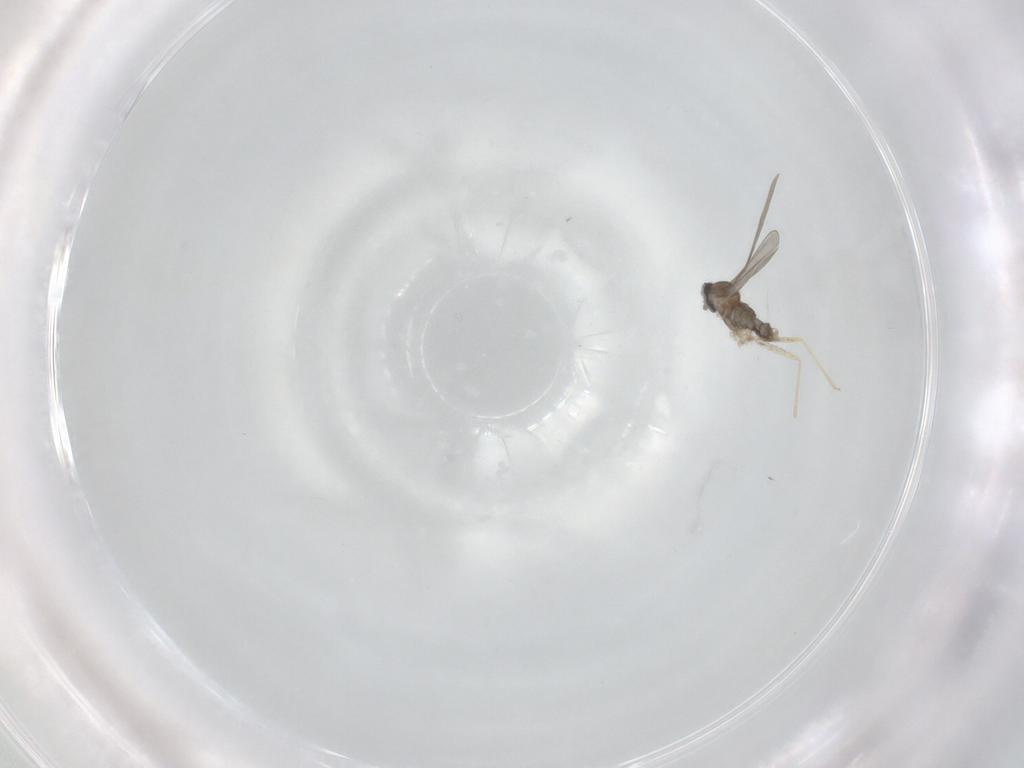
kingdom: Animalia
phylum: Arthropoda
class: Insecta
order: Diptera
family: Cecidomyiidae
